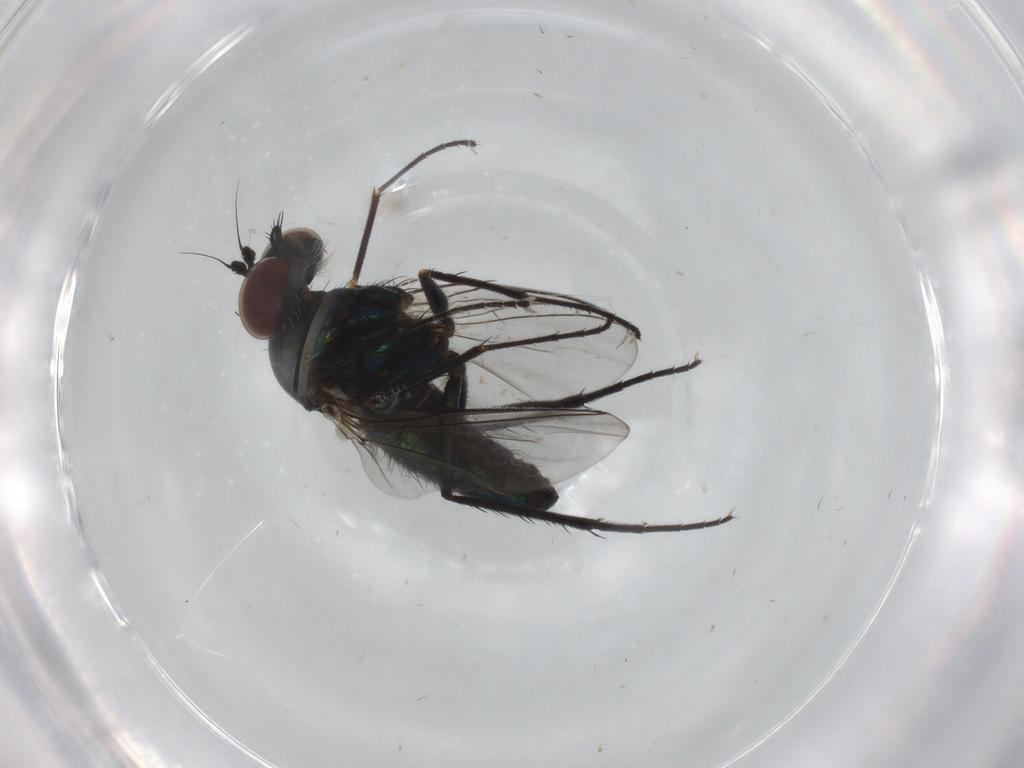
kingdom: Animalia
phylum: Arthropoda
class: Insecta
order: Diptera
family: Dolichopodidae
